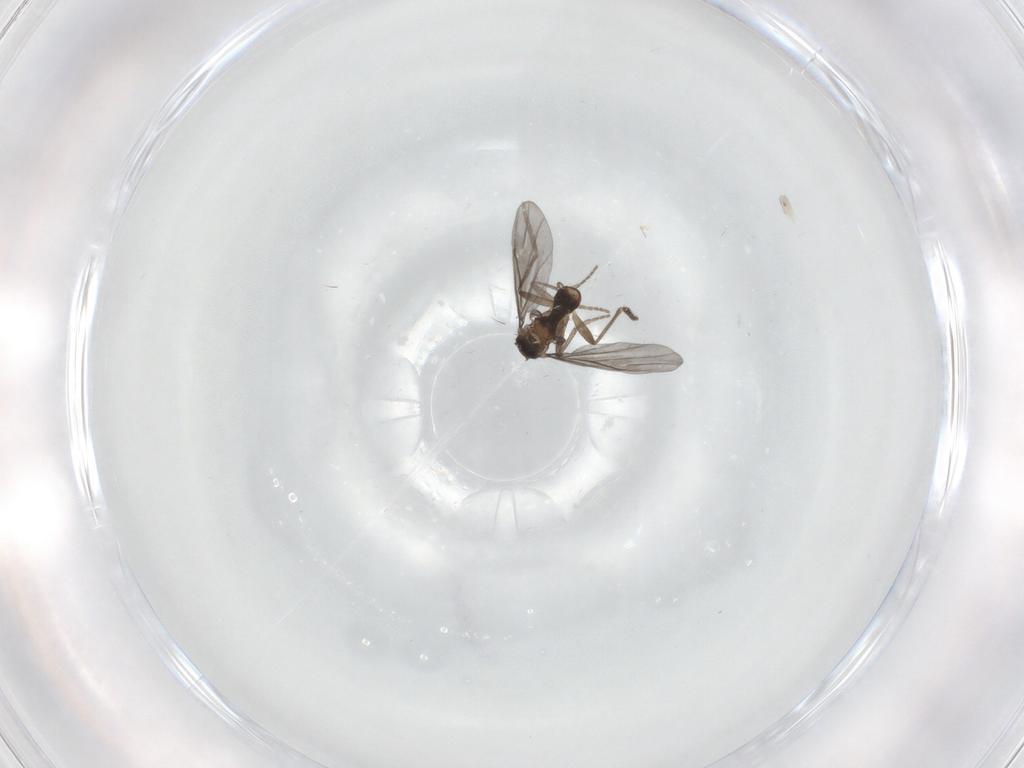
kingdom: Animalia
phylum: Arthropoda
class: Insecta
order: Diptera
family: Phoridae
